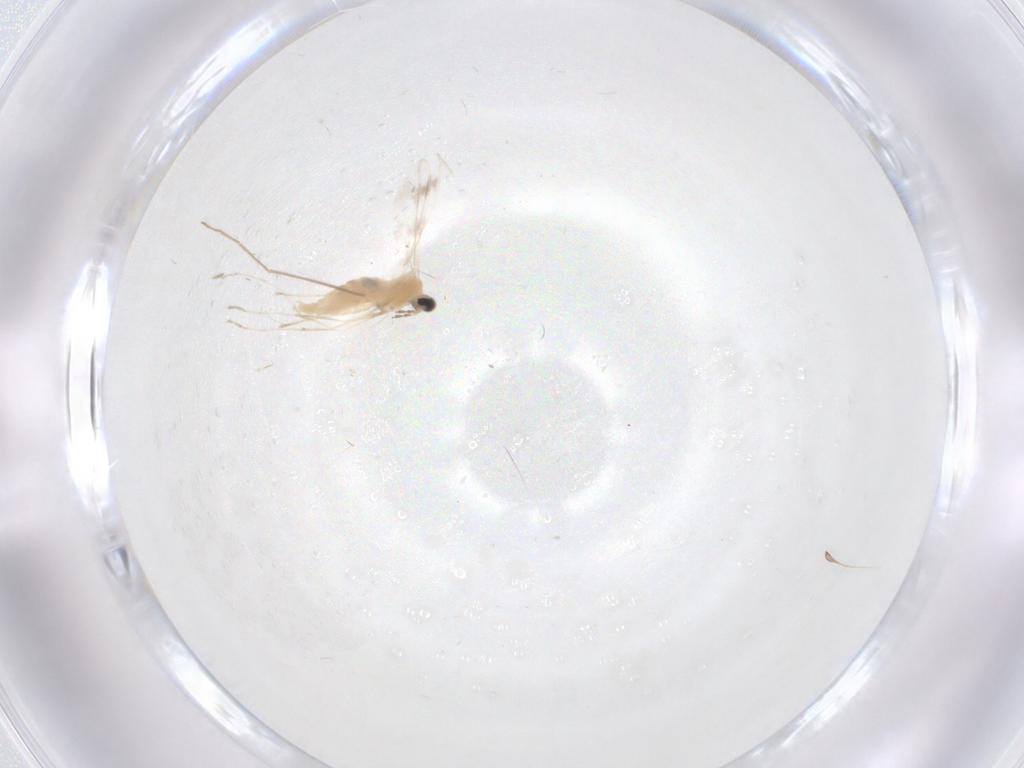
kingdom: Animalia
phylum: Arthropoda
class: Insecta
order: Diptera
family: Cecidomyiidae
